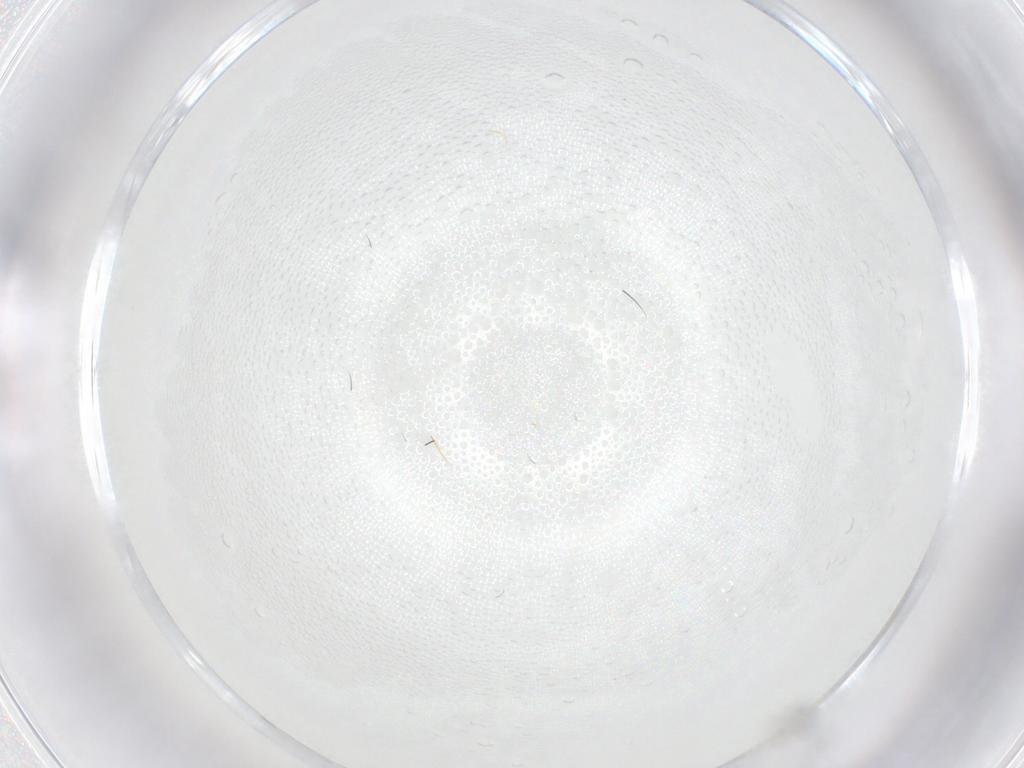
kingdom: Animalia
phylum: Arthropoda
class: Insecta
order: Diptera
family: Cecidomyiidae
